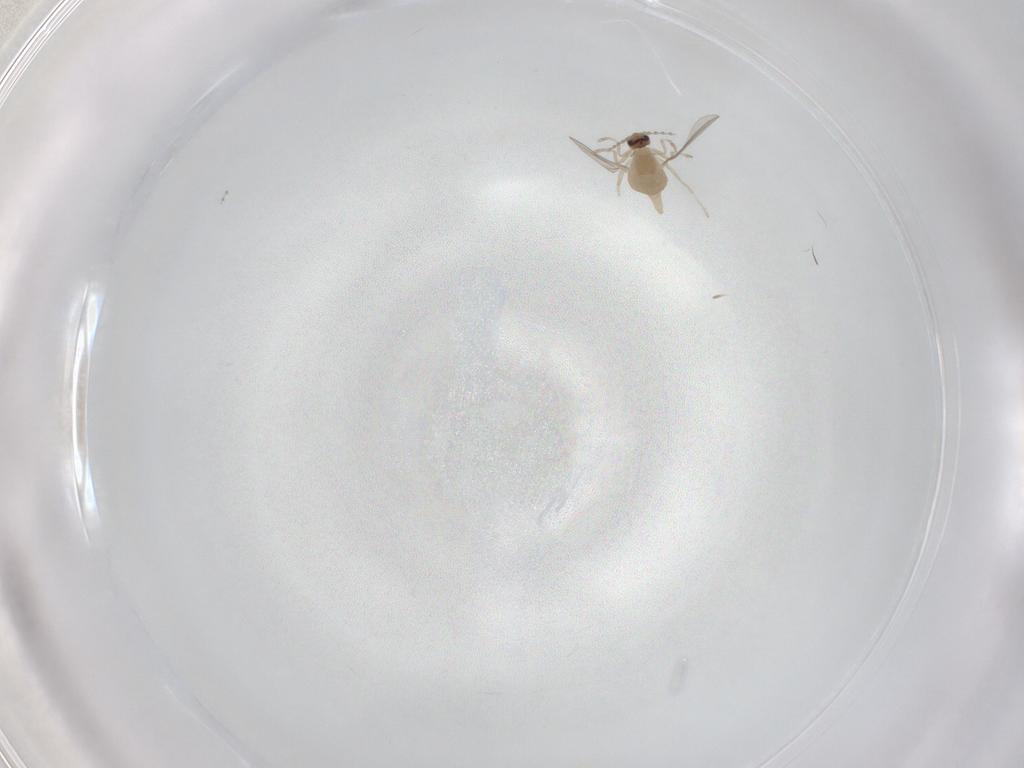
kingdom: Animalia
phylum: Arthropoda
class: Insecta
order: Diptera
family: Cecidomyiidae
